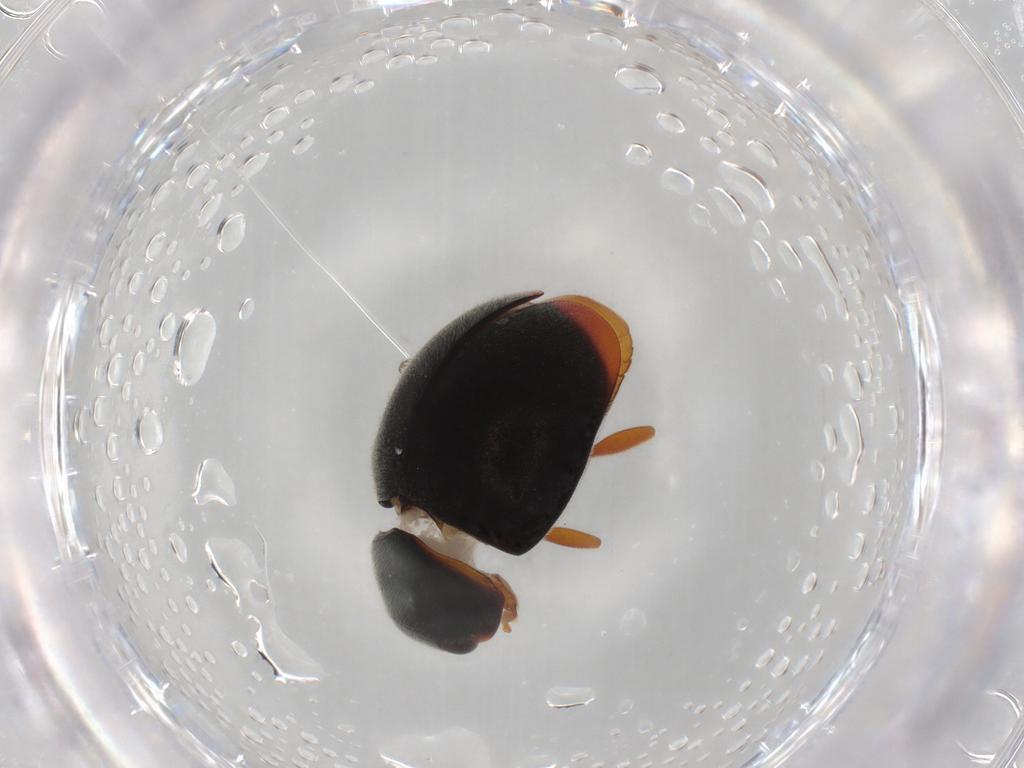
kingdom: Animalia
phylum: Arthropoda
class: Insecta
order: Coleoptera
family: Coccinellidae
